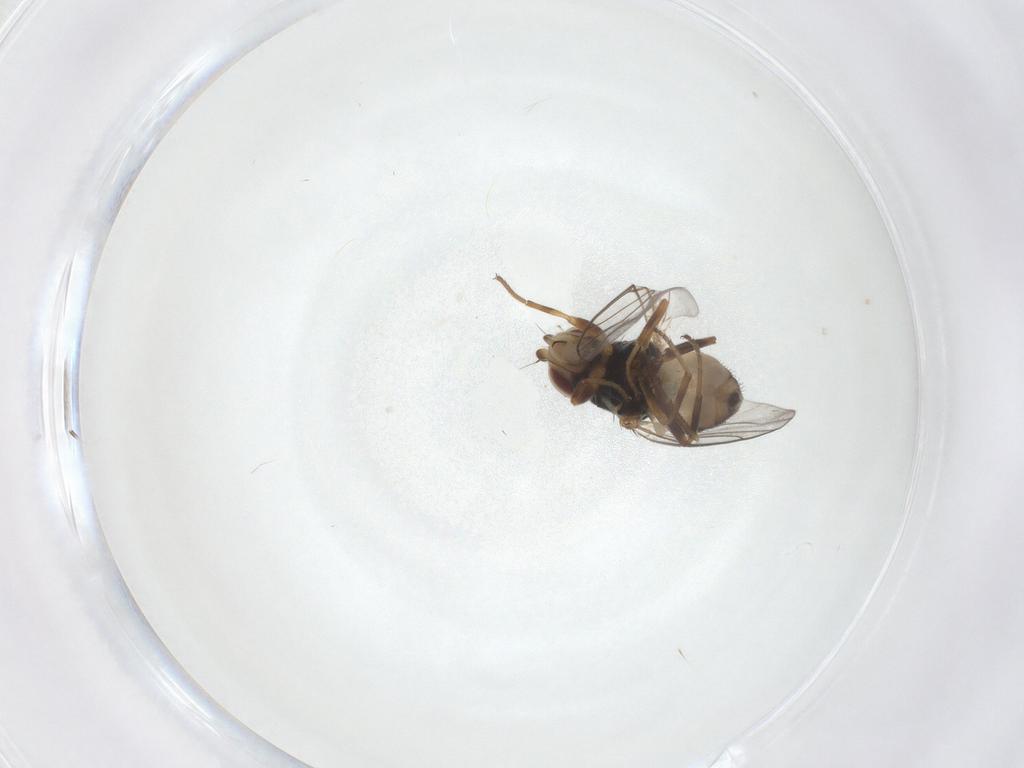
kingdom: Animalia
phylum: Arthropoda
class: Insecta
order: Diptera
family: Chloropidae
